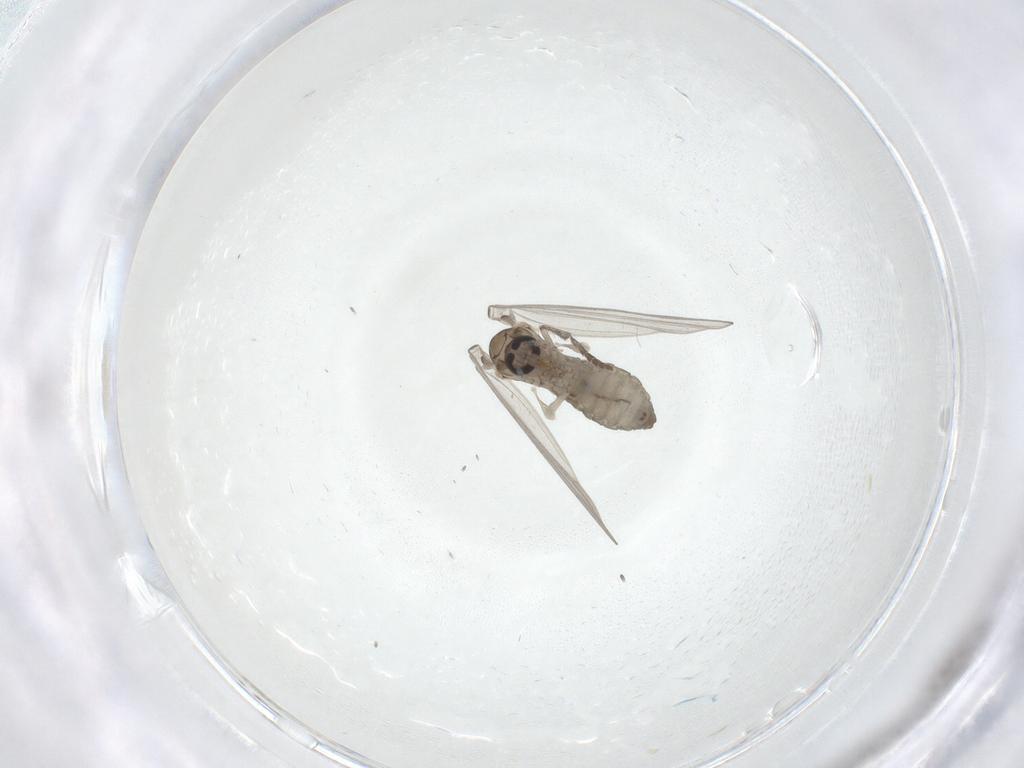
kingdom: Animalia
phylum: Arthropoda
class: Insecta
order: Diptera
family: Psychodidae
